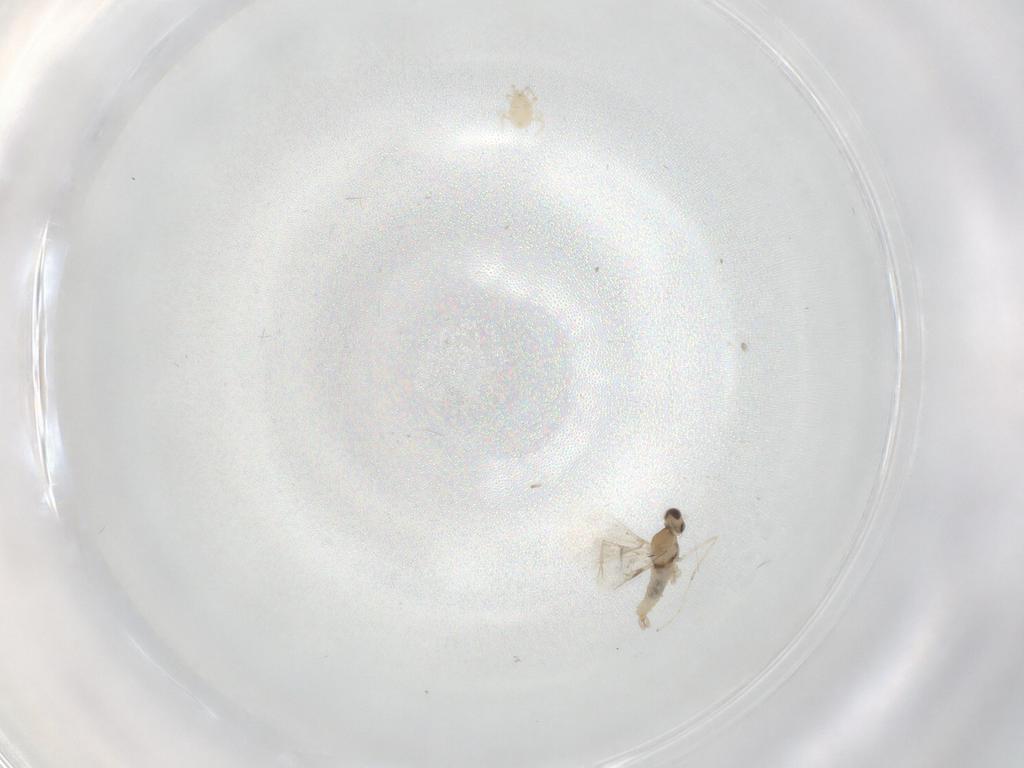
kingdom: Animalia
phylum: Arthropoda
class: Insecta
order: Diptera
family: Cecidomyiidae
